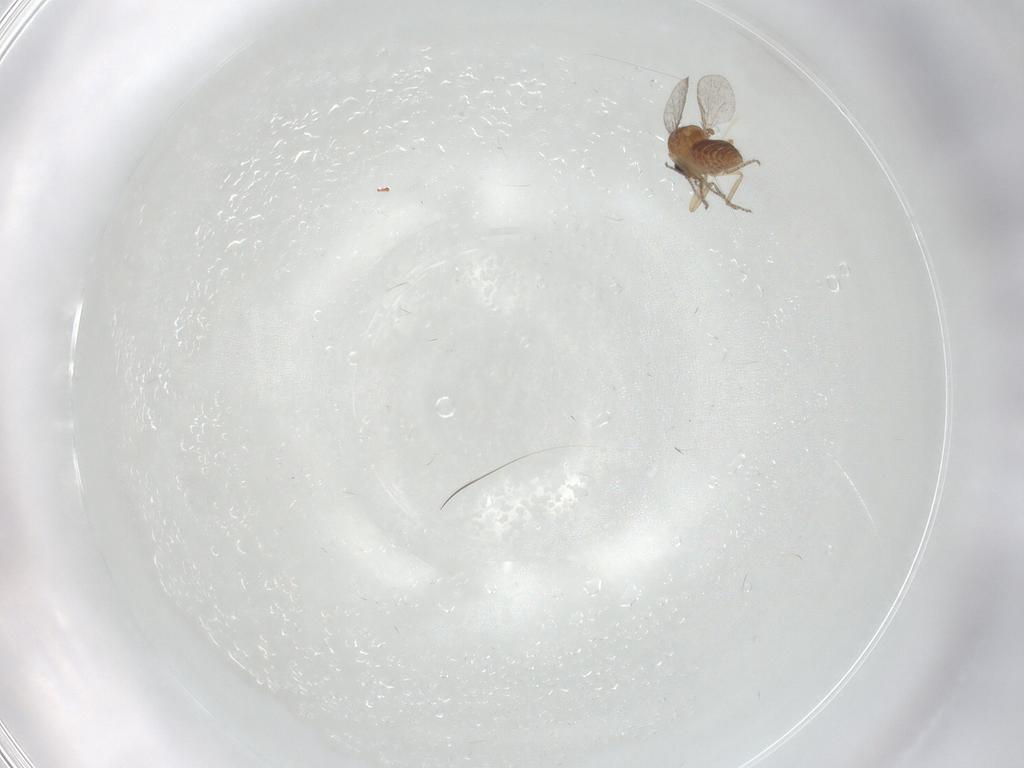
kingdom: Animalia
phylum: Arthropoda
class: Insecta
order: Diptera
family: Ceratopogonidae
